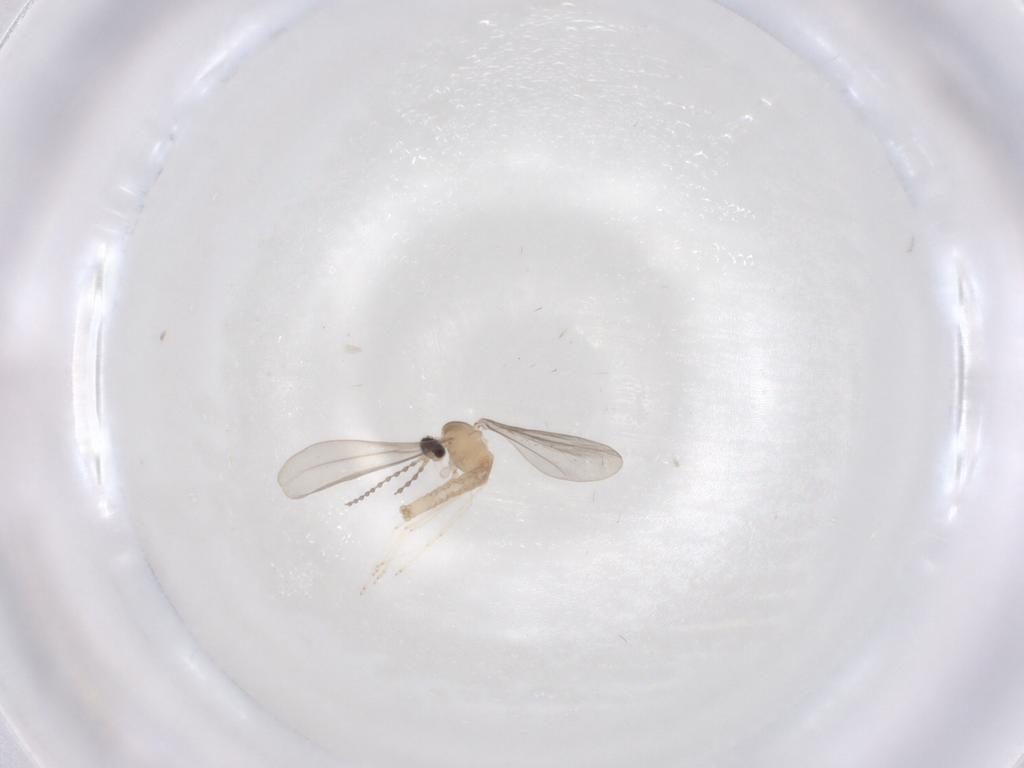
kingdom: Animalia
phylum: Arthropoda
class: Insecta
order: Diptera
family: Cecidomyiidae
